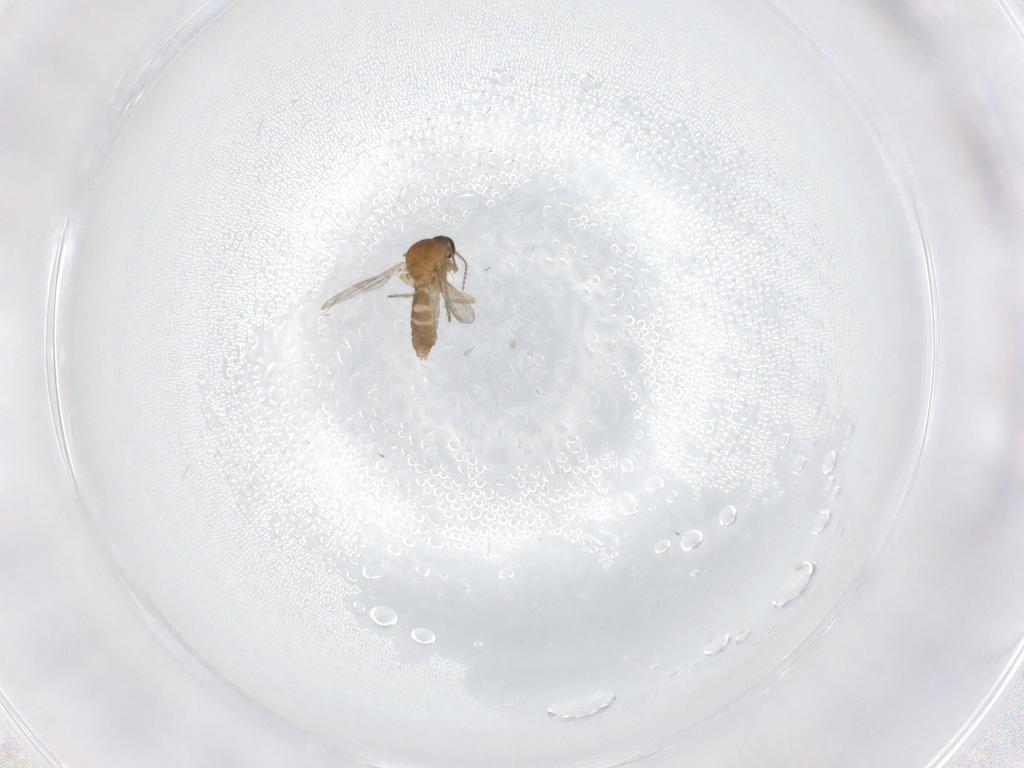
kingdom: Animalia
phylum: Arthropoda
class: Insecta
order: Diptera
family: Ceratopogonidae
